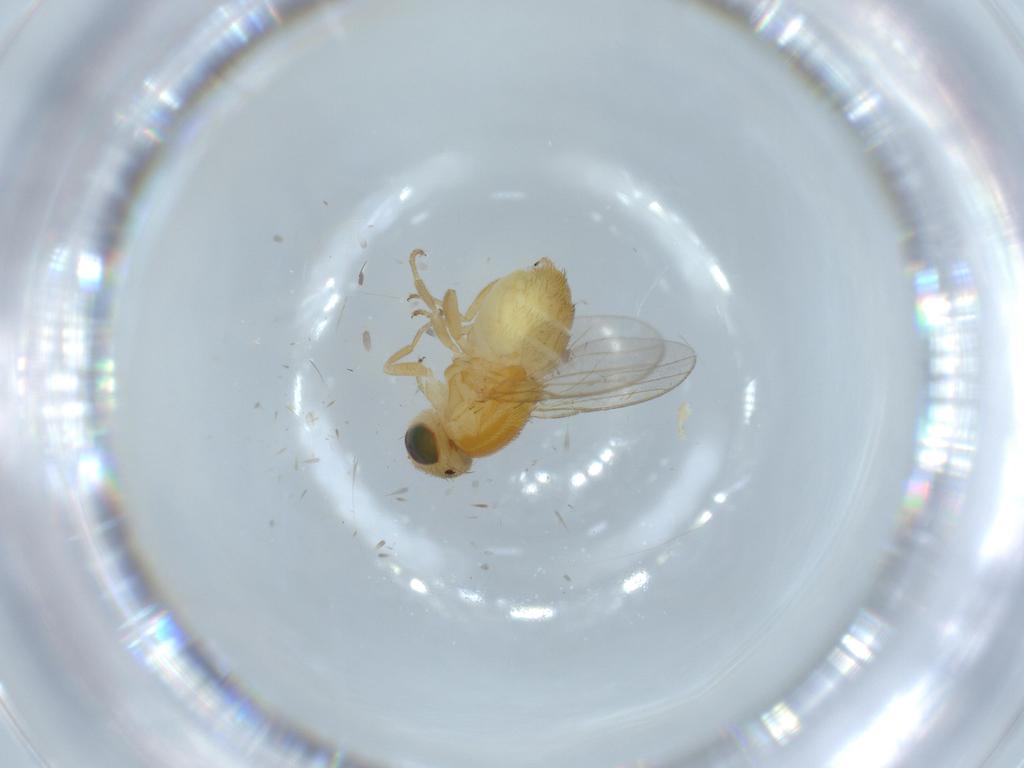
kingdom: Animalia
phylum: Arthropoda
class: Insecta
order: Diptera
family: Chloropidae
